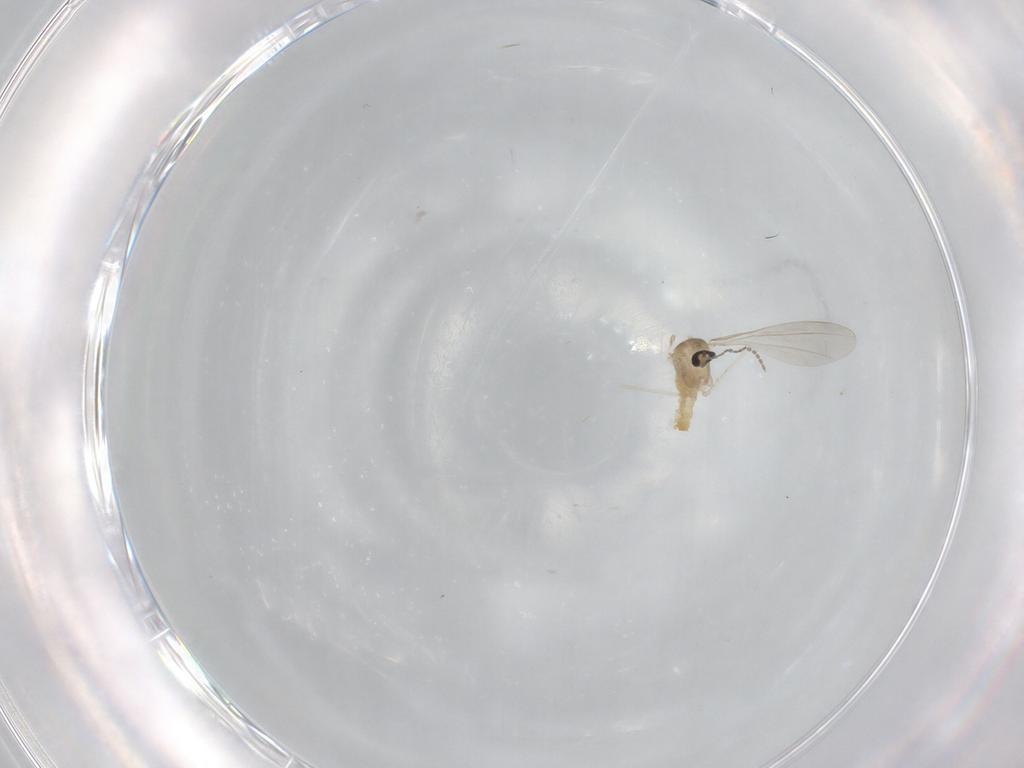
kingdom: Animalia
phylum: Arthropoda
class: Insecta
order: Diptera
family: Cecidomyiidae
